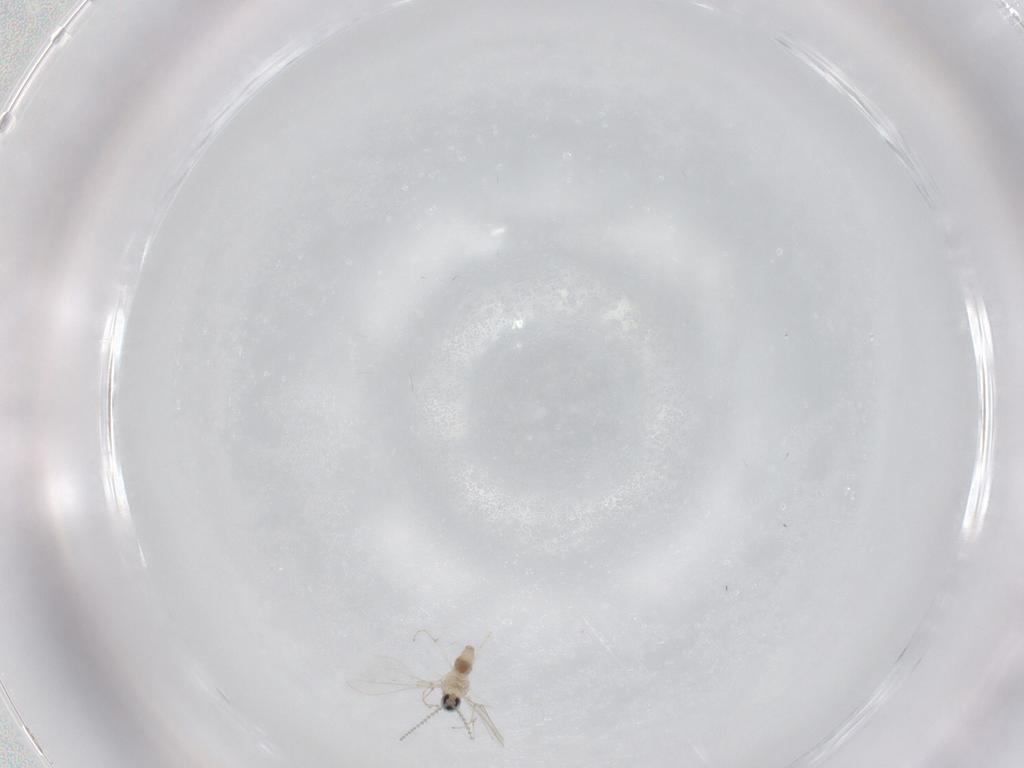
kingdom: Animalia
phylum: Arthropoda
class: Insecta
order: Diptera
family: Cecidomyiidae
